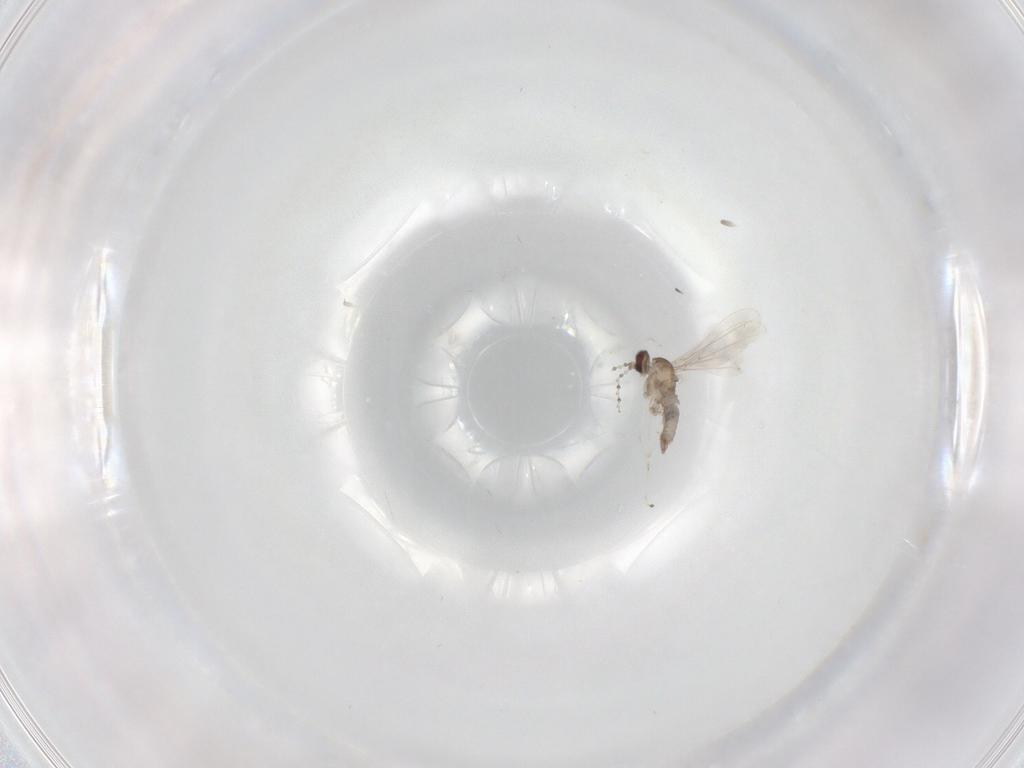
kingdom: Animalia
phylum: Arthropoda
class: Insecta
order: Diptera
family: Cecidomyiidae
